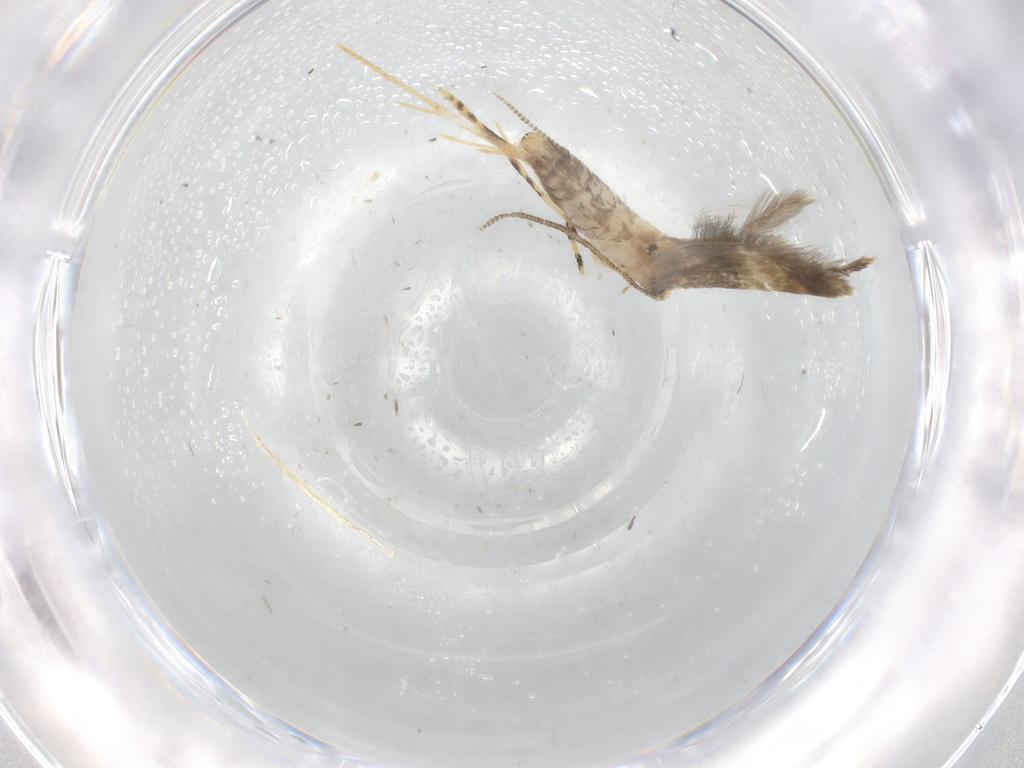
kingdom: Animalia
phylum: Arthropoda
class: Insecta
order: Lepidoptera
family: Tineidae
